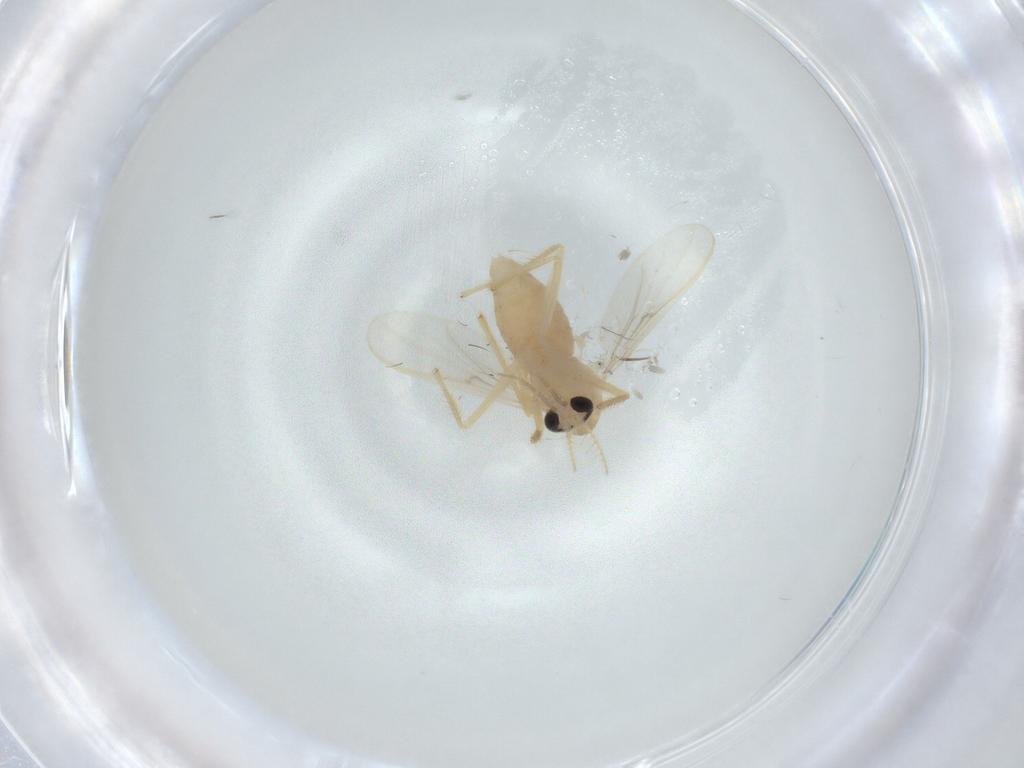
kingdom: Animalia
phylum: Arthropoda
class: Insecta
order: Diptera
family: Chironomidae
